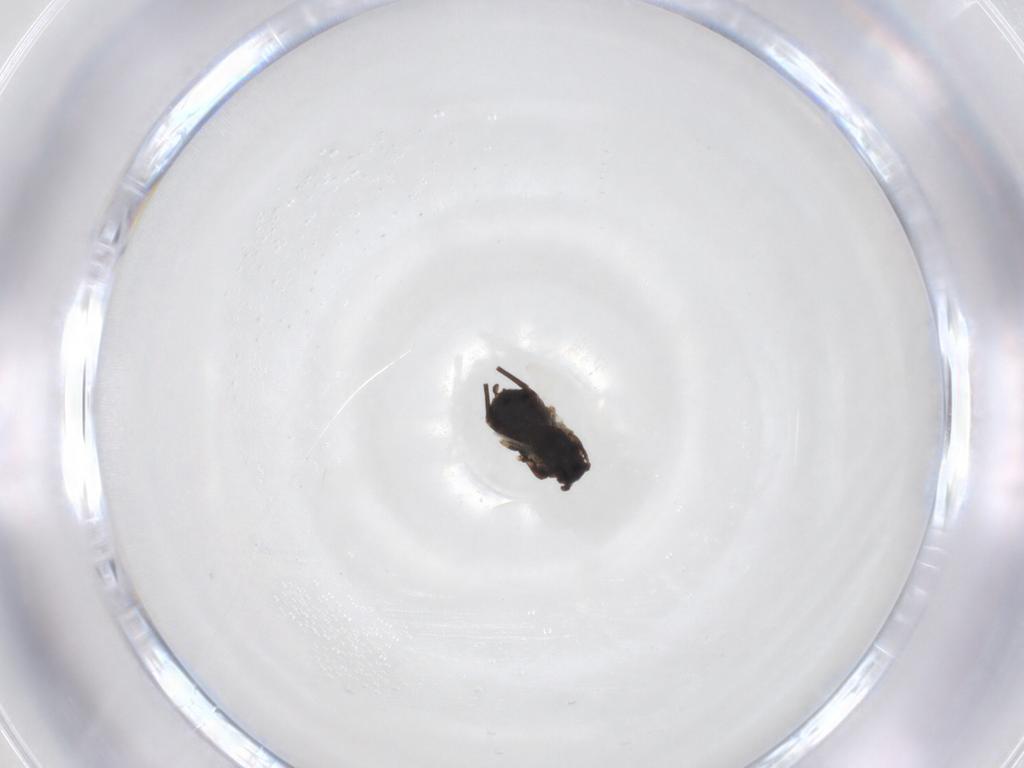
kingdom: Animalia
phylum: Arthropoda
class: Insecta
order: Hemiptera
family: Aphididae
